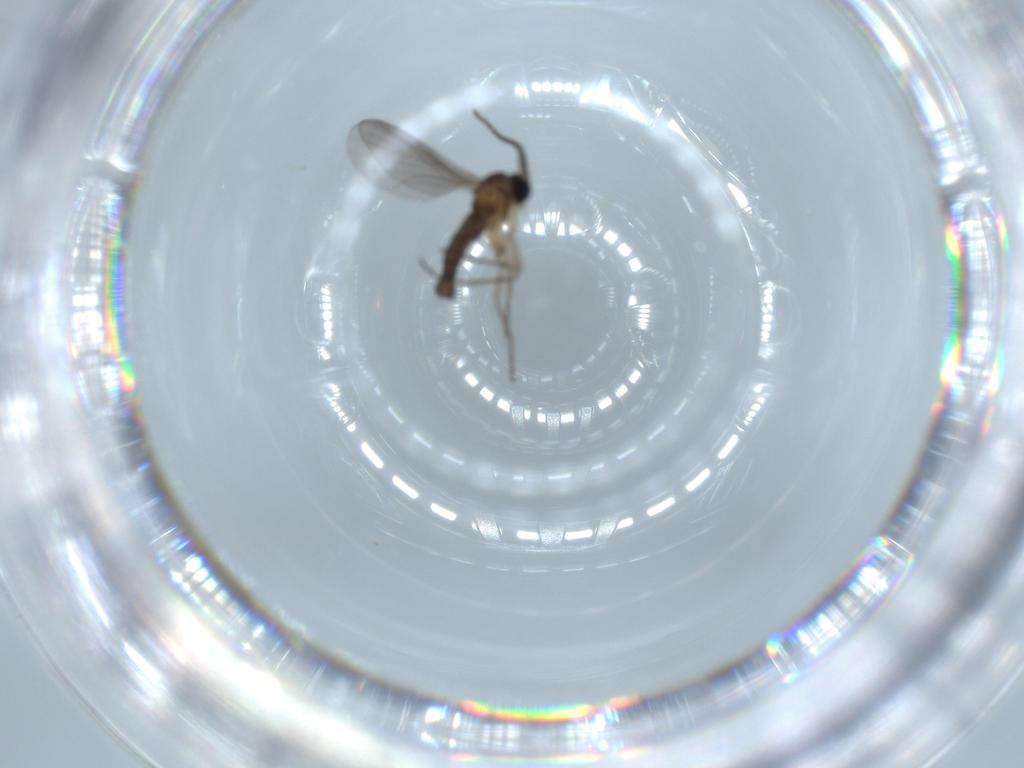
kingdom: Animalia
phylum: Arthropoda
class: Insecta
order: Diptera
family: Sciaridae
